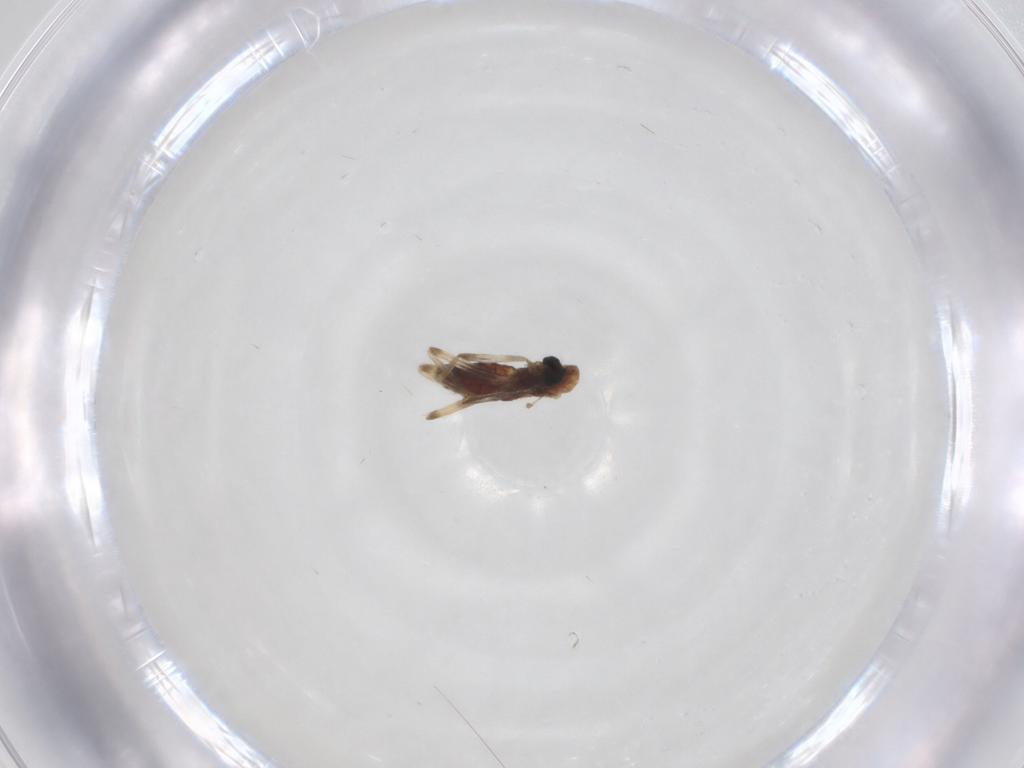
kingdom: Animalia
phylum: Arthropoda
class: Insecta
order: Diptera
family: Chironomidae
